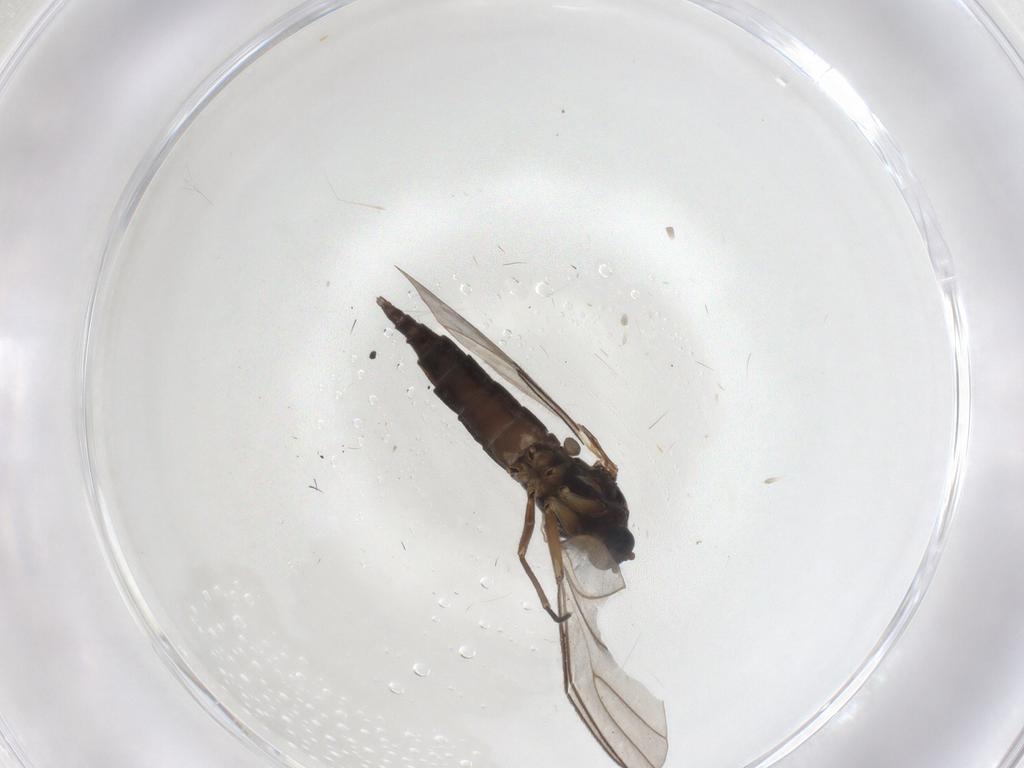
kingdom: Animalia
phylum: Arthropoda
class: Insecta
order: Diptera
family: Sciaridae
